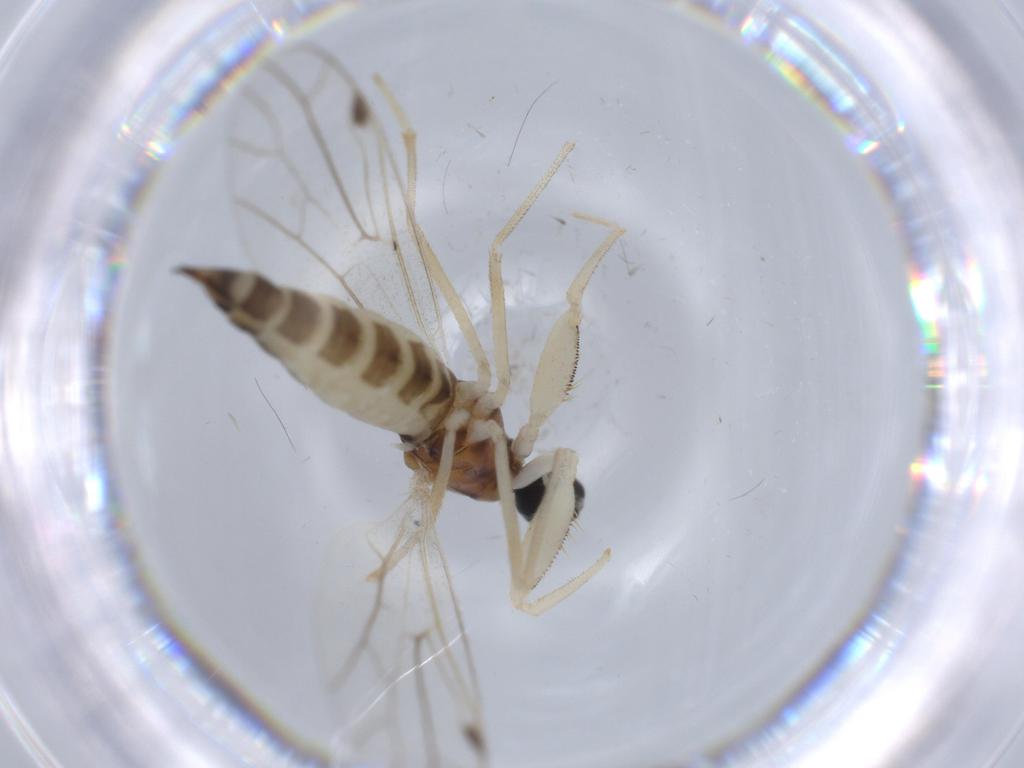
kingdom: Animalia
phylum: Arthropoda
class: Insecta
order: Diptera
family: Empididae
